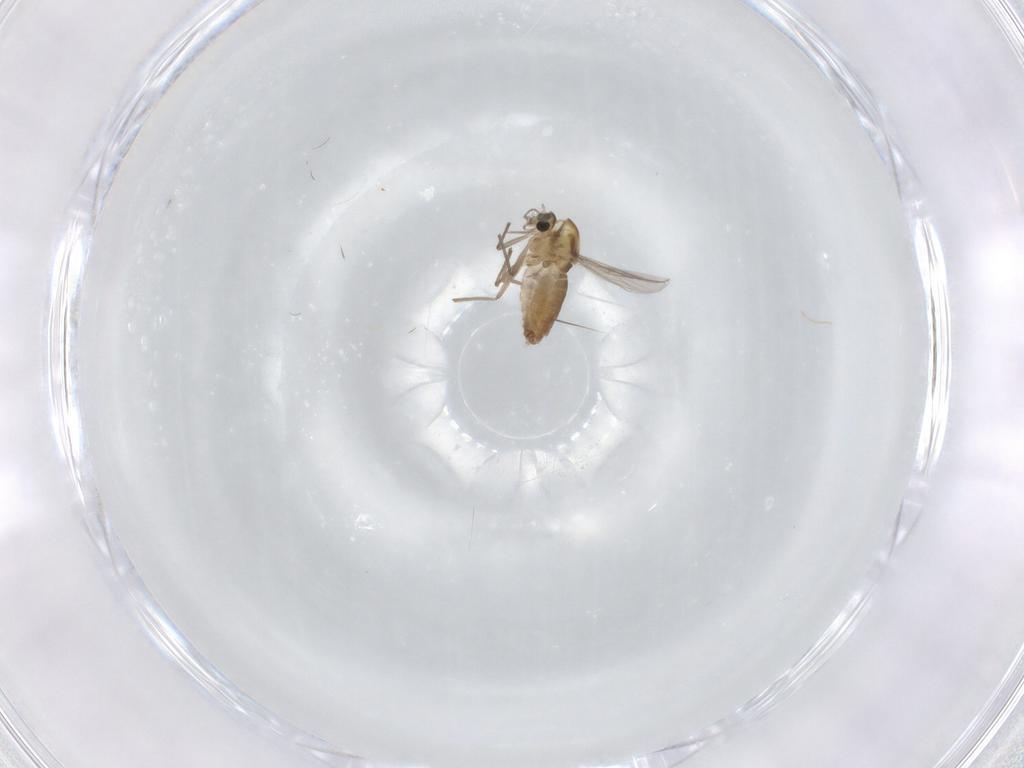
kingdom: Animalia
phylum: Arthropoda
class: Insecta
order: Diptera
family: Chironomidae
